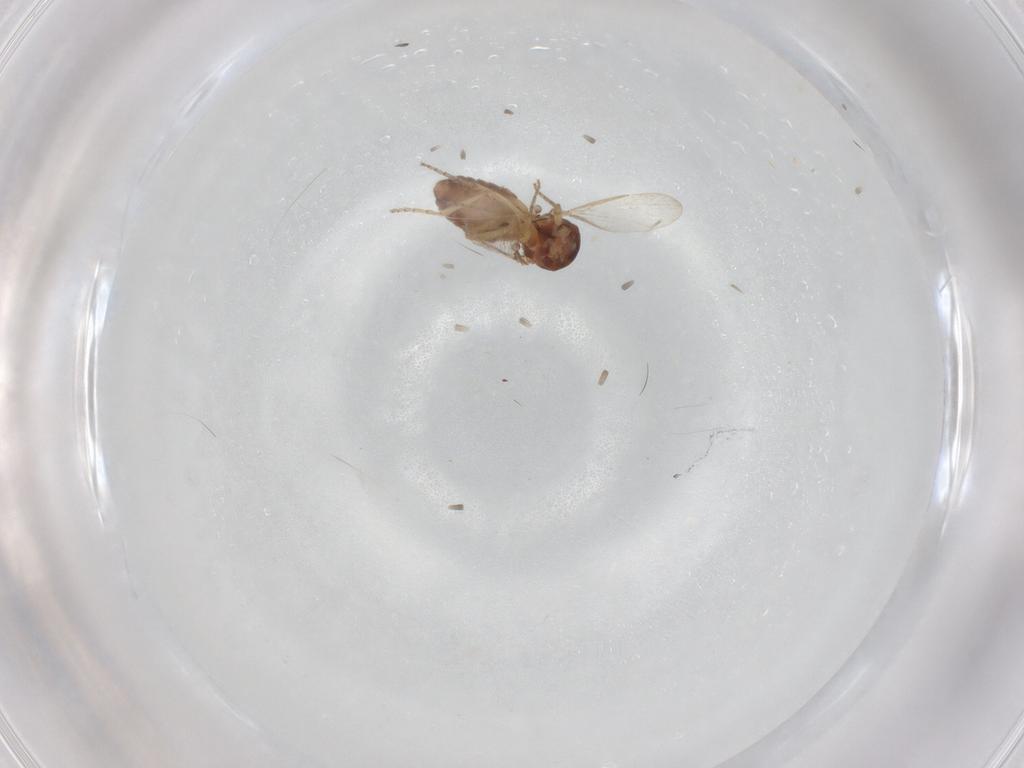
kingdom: Animalia
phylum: Arthropoda
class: Insecta
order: Diptera
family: Ceratopogonidae
